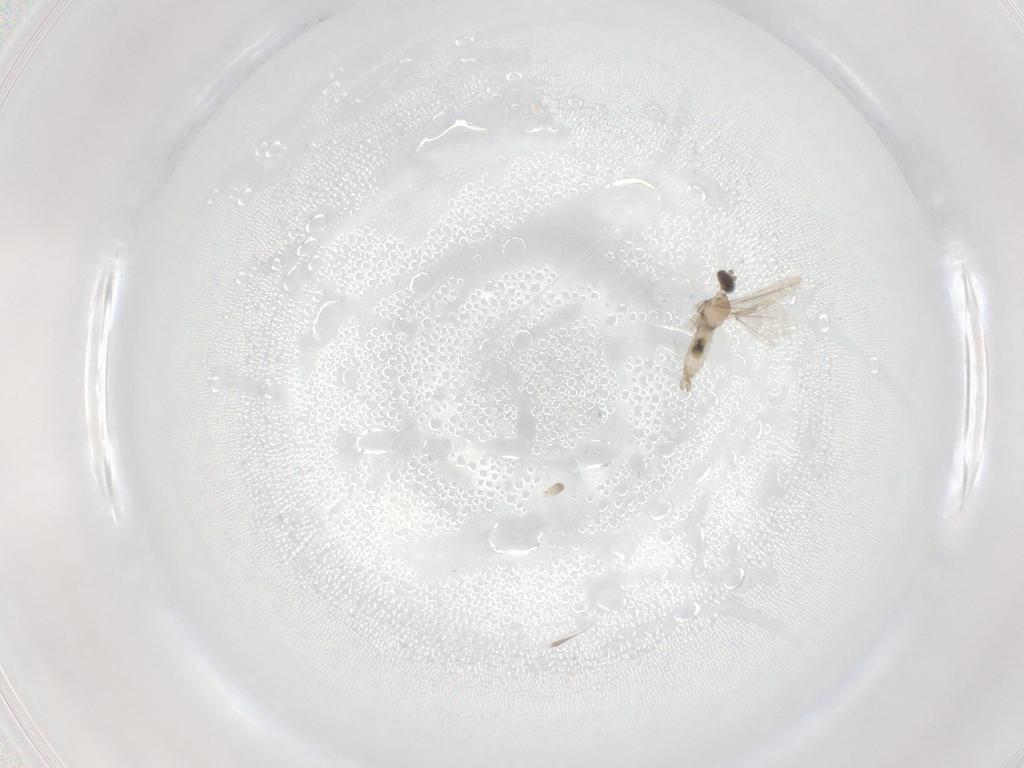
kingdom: Animalia
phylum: Arthropoda
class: Insecta
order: Diptera
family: Cecidomyiidae
